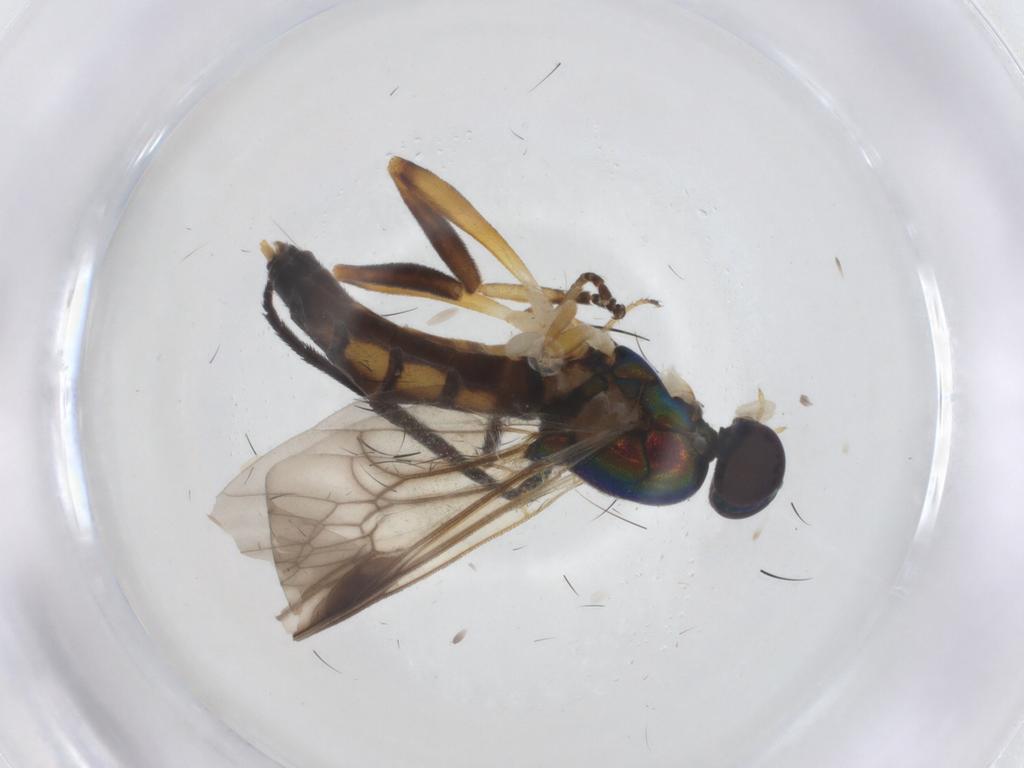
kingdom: Animalia
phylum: Arthropoda
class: Insecta
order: Diptera
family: Stratiomyidae
